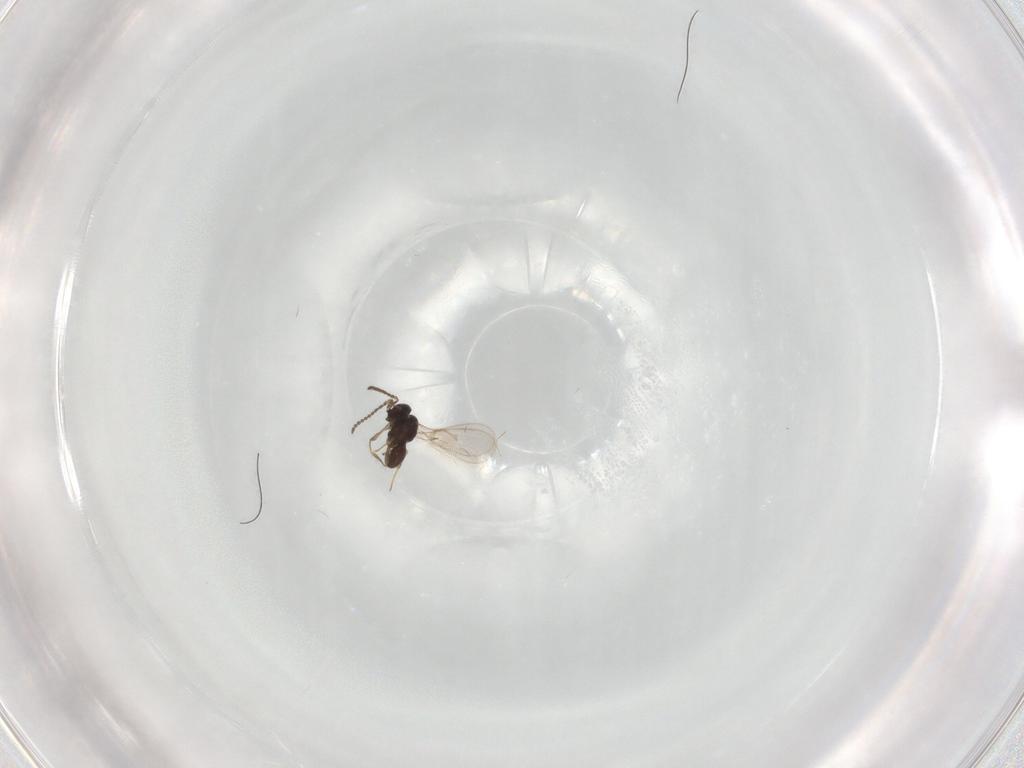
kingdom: Animalia
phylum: Arthropoda
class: Insecta
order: Hymenoptera
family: Scelionidae
